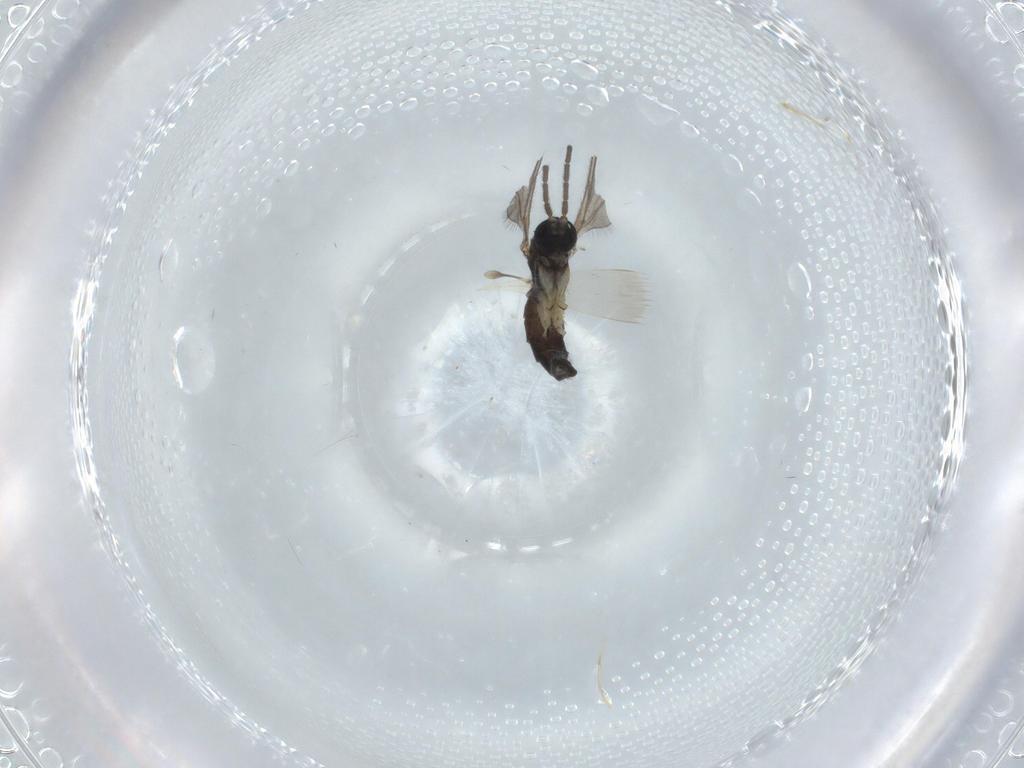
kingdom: Animalia
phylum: Arthropoda
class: Insecta
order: Diptera
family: Sciaridae
